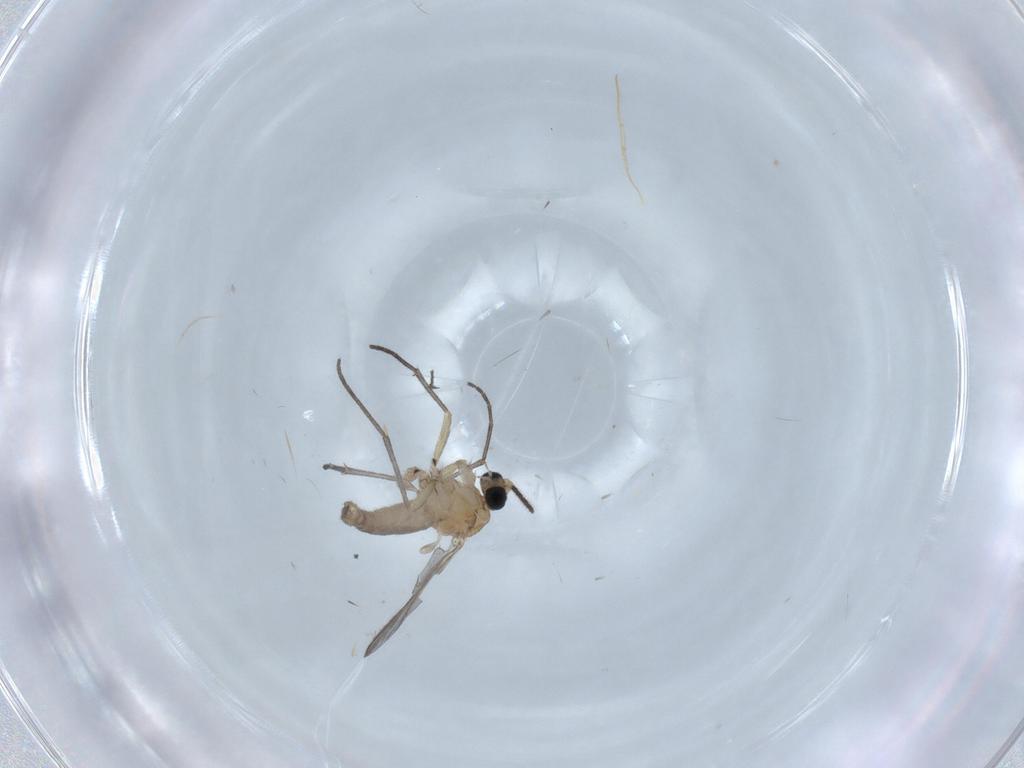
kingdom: Animalia
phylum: Arthropoda
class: Insecta
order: Diptera
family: Sciaridae
